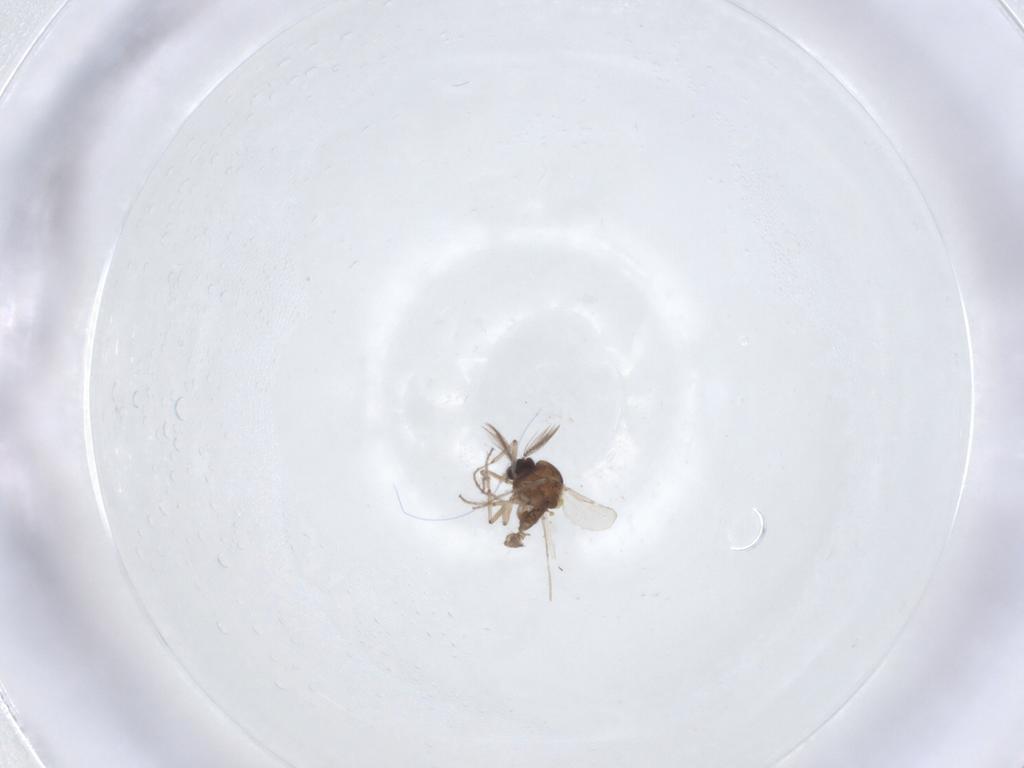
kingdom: Animalia
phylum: Arthropoda
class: Insecta
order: Diptera
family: Ceratopogonidae
